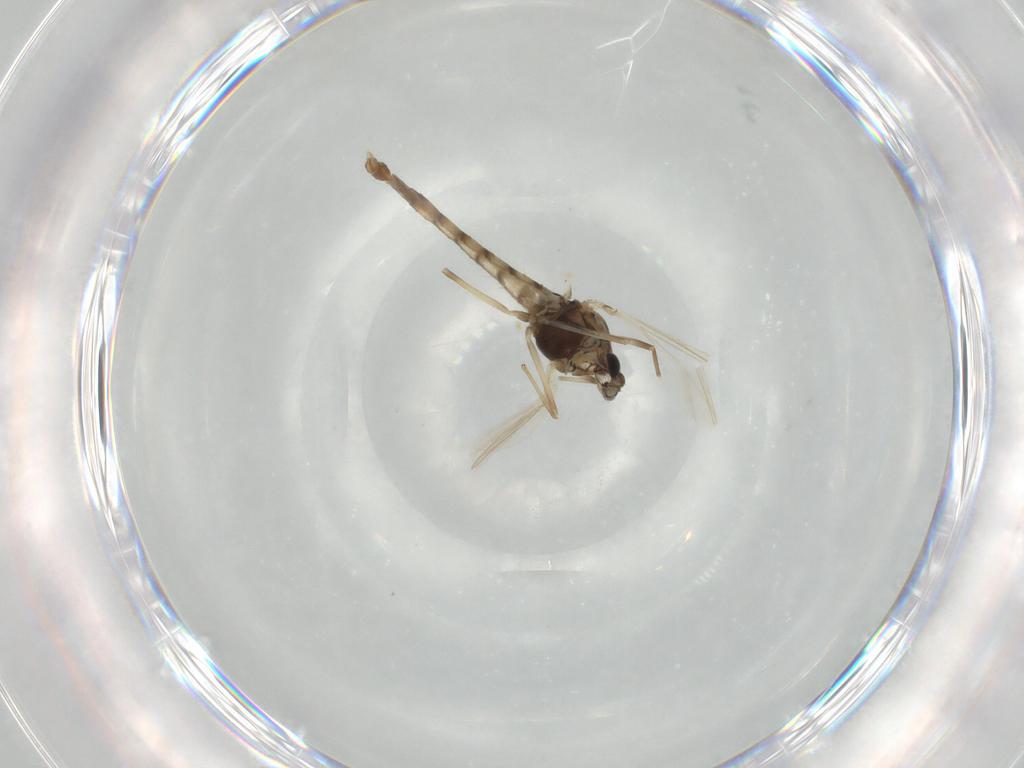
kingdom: Animalia
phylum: Arthropoda
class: Insecta
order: Diptera
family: Chironomidae
